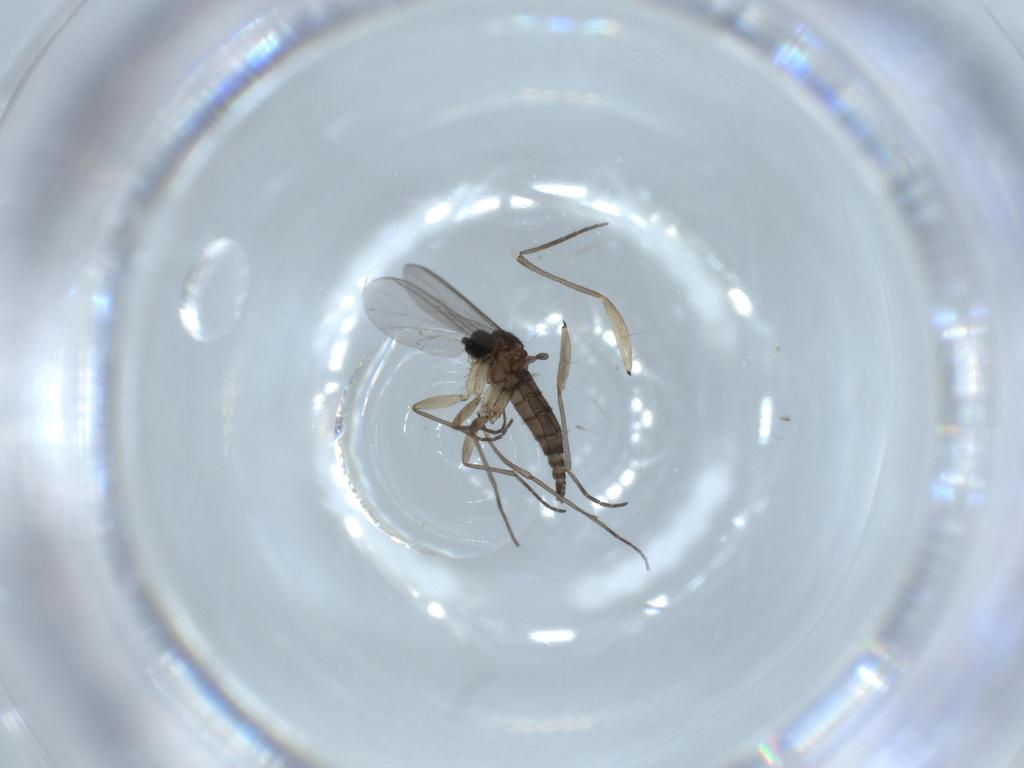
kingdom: Animalia
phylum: Arthropoda
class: Insecta
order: Diptera
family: Sciaridae
